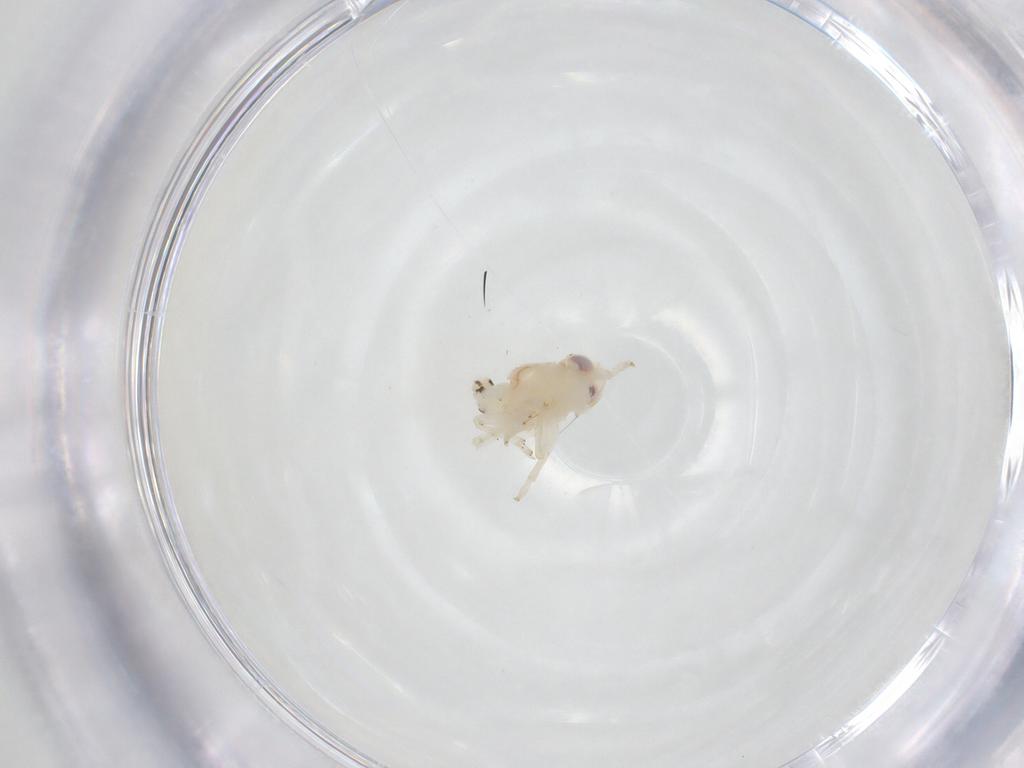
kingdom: Animalia
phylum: Arthropoda
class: Insecta
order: Hemiptera
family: Nogodinidae
